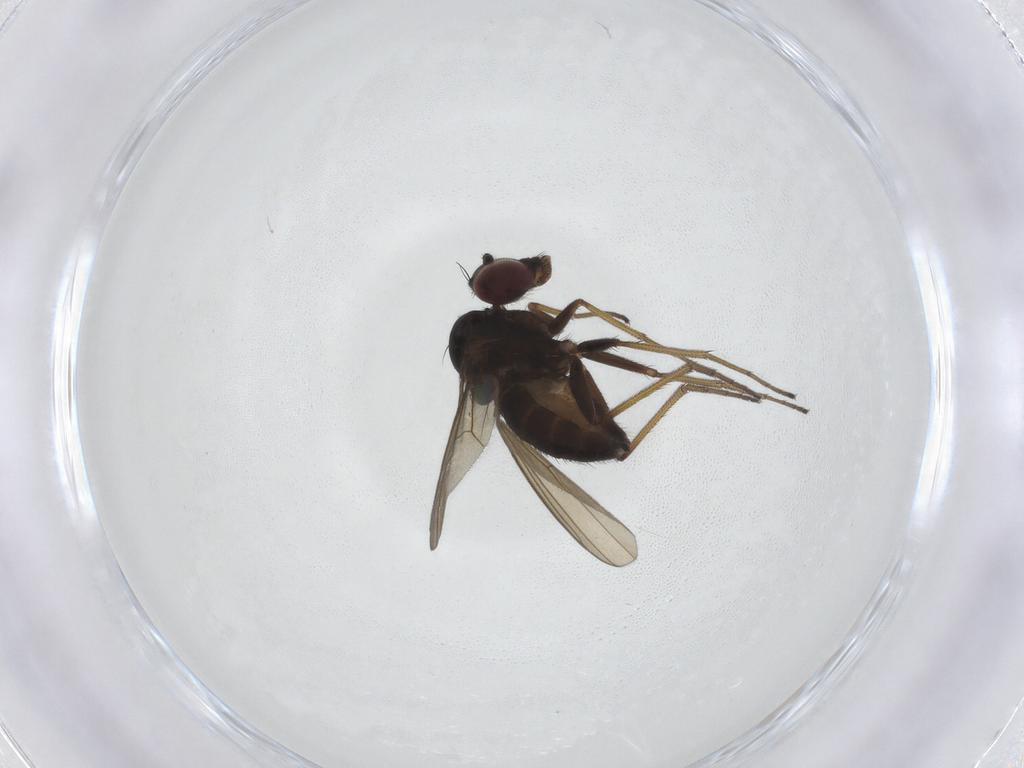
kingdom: Animalia
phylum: Arthropoda
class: Insecta
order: Diptera
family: Dolichopodidae
